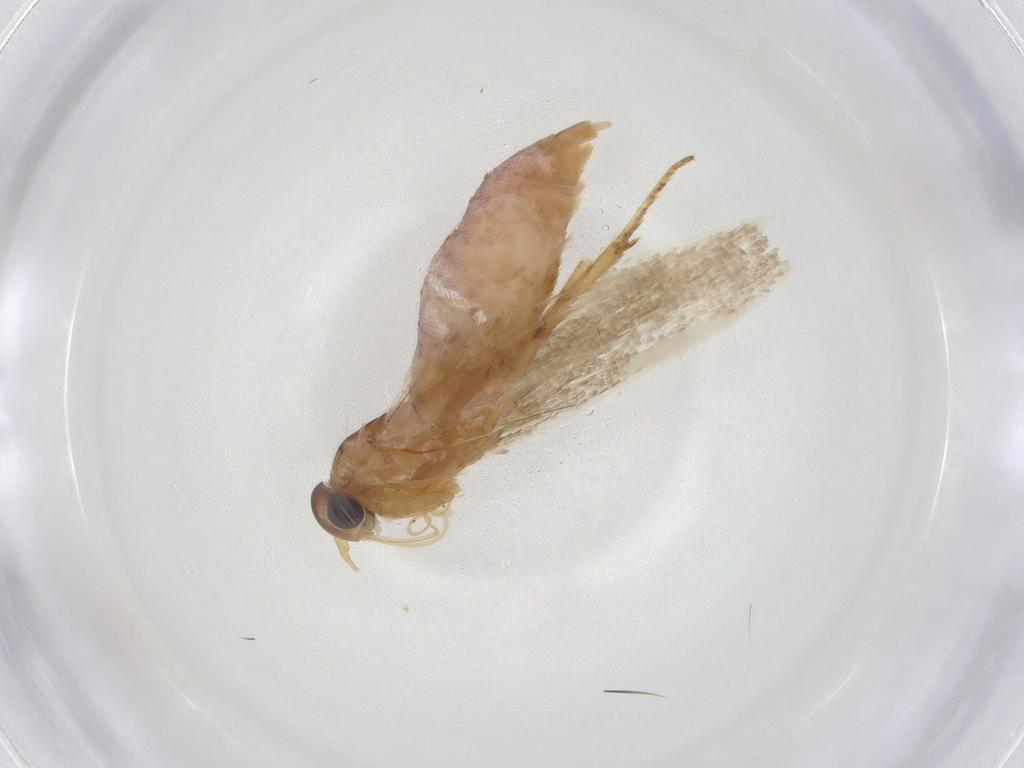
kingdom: Animalia
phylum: Arthropoda
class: Insecta
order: Lepidoptera
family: Blastobasidae
